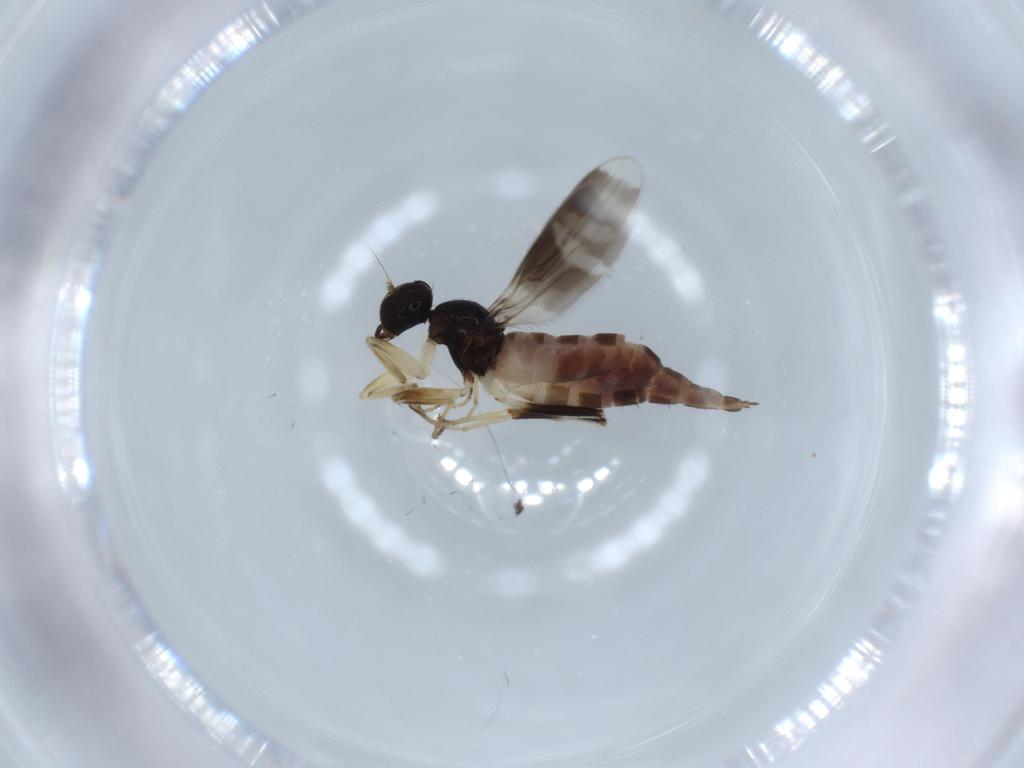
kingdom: Animalia
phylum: Arthropoda
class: Insecta
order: Diptera
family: Hybotidae
